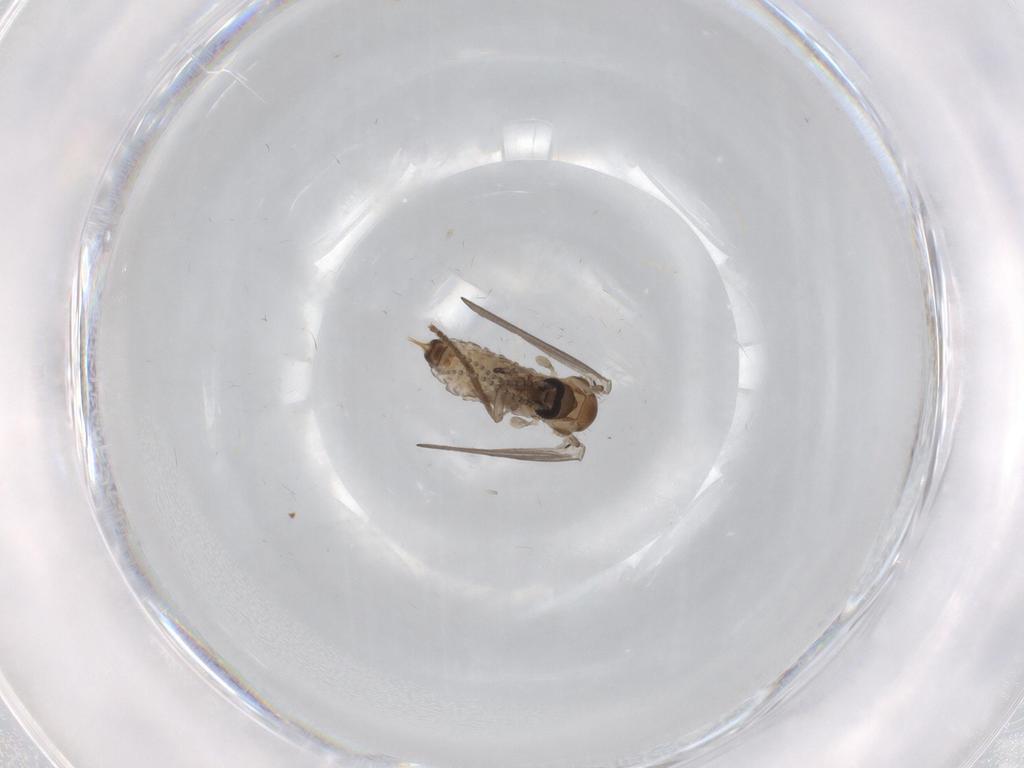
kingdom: Animalia
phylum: Arthropoda
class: Insecta
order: Diptera
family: Psychodidae
